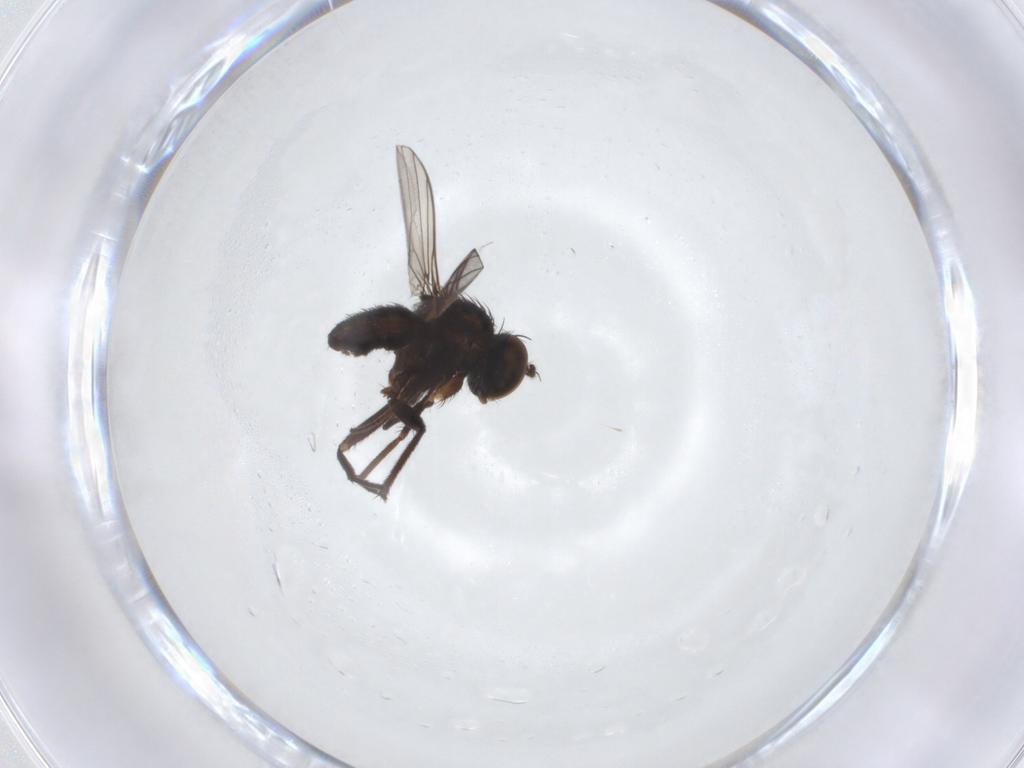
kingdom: Animalia
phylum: Arthropoda
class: Insecta
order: Diptera
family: Dolichopodidae
